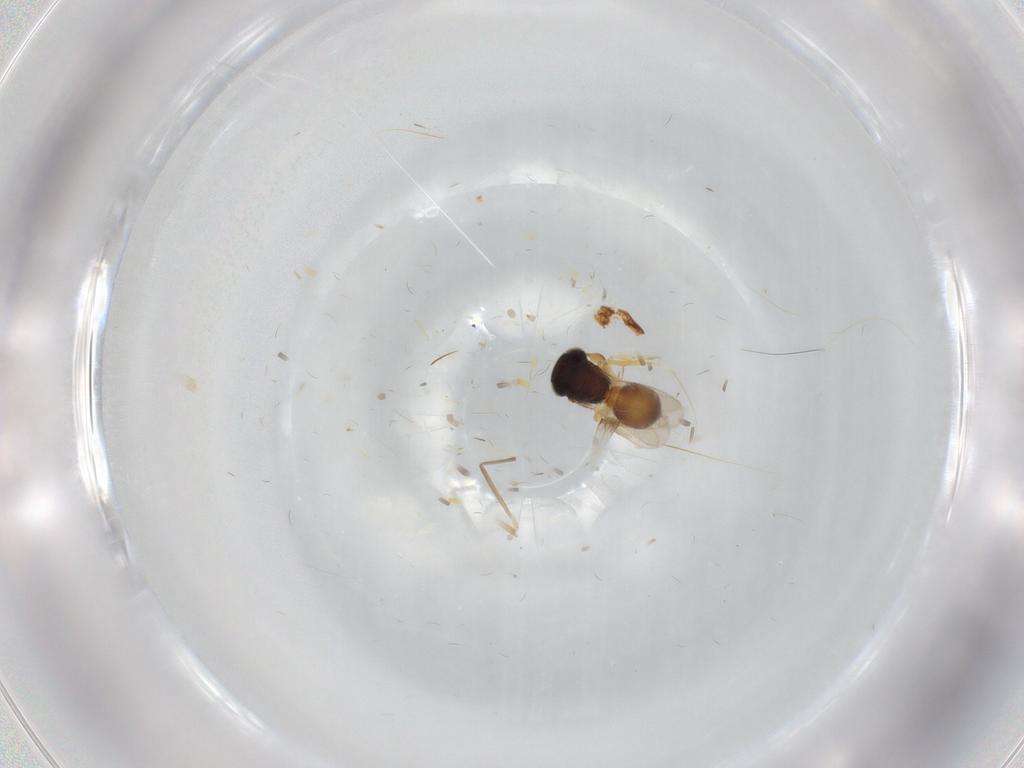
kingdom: Animalia
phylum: Arthropoda
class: Insecta
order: Hymenoptera
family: Scelionidae
